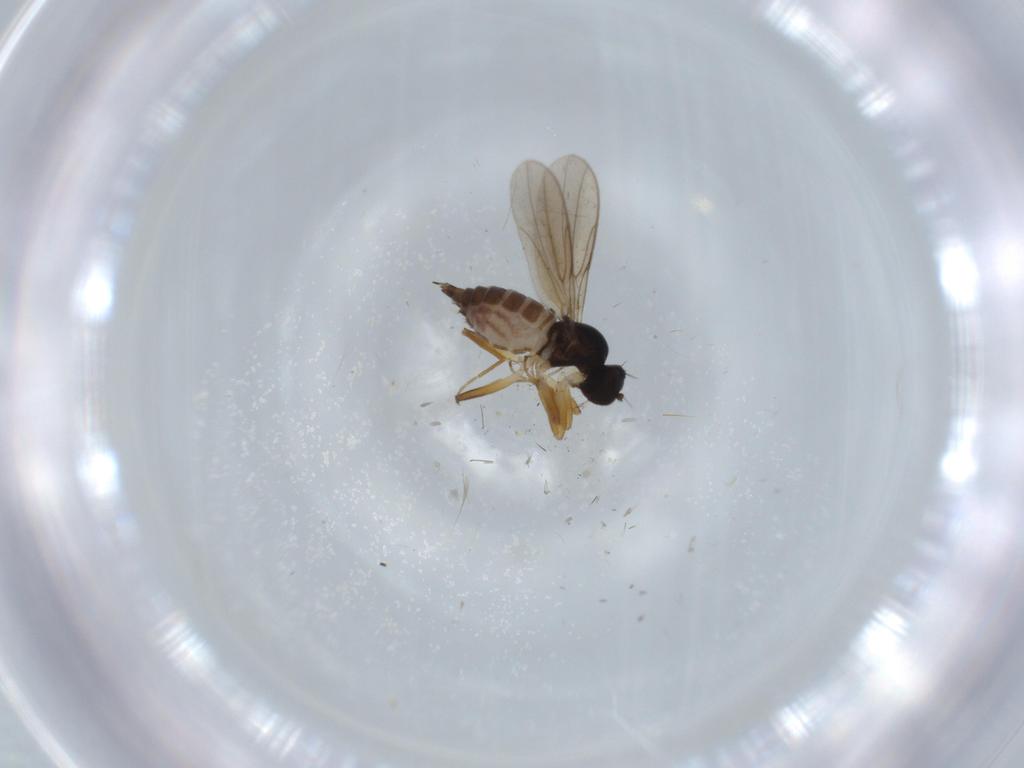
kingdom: Animalia
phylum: Arthropoda
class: Insecta
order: Diptera
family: Hybotidae
